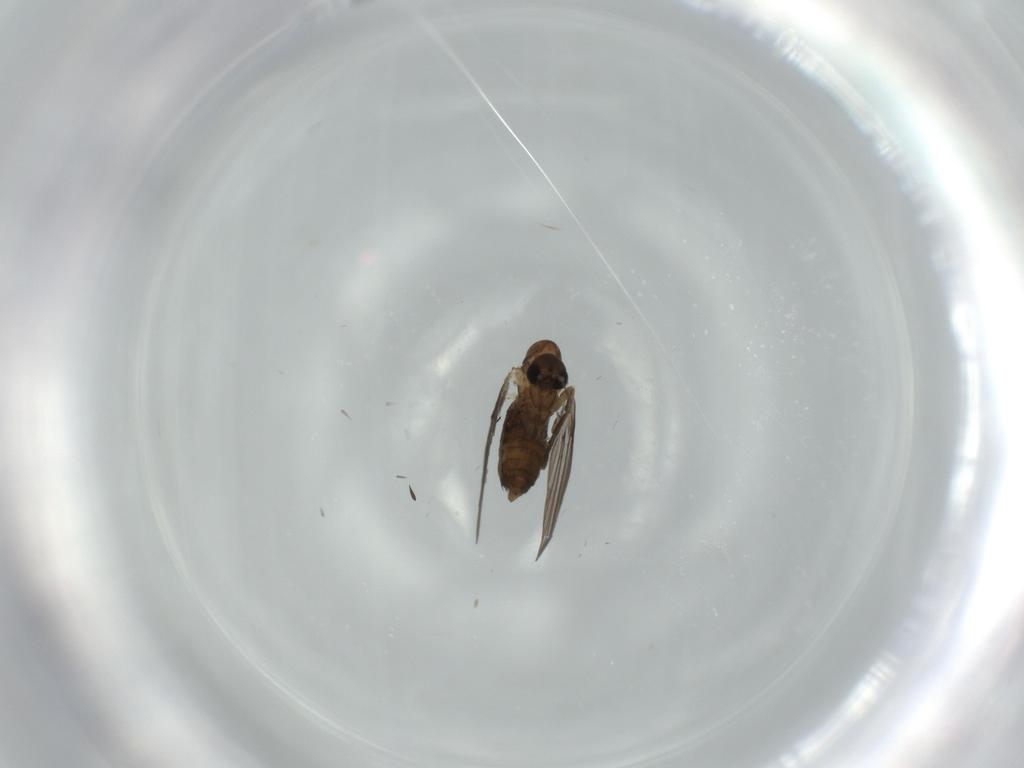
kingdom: Animalia
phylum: Arthropoda
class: Insecta
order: Diptera
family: Psychodidae
